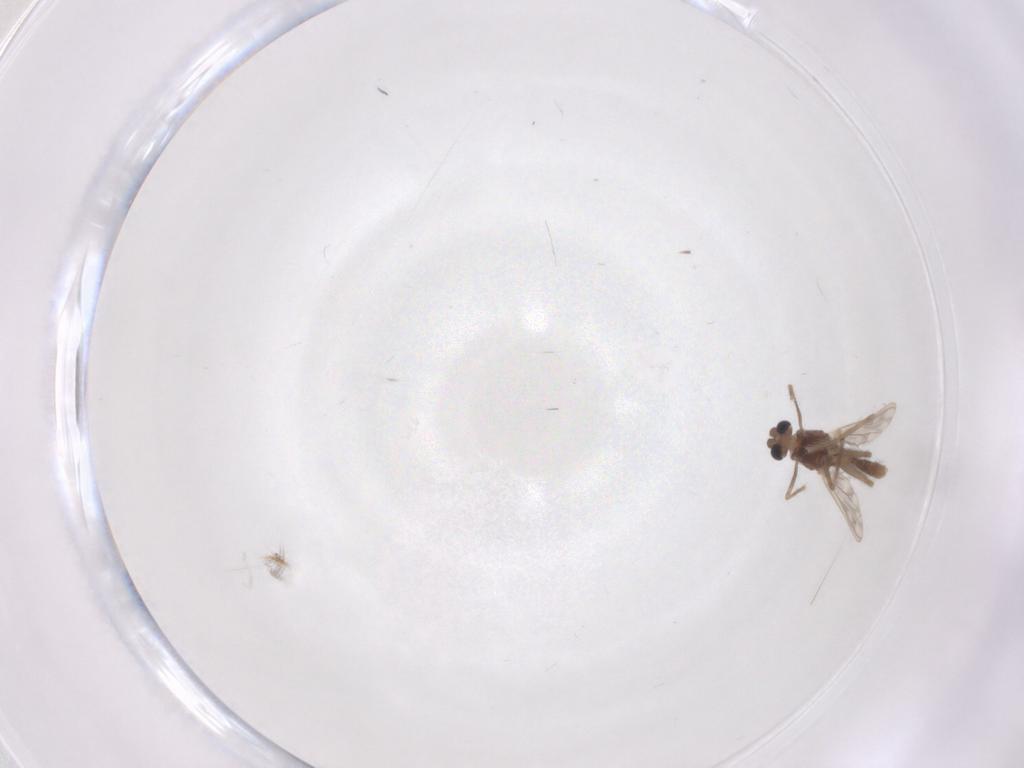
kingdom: Animalia
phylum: Arthropoda
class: Insecta
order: Diptera
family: Chironomidae
